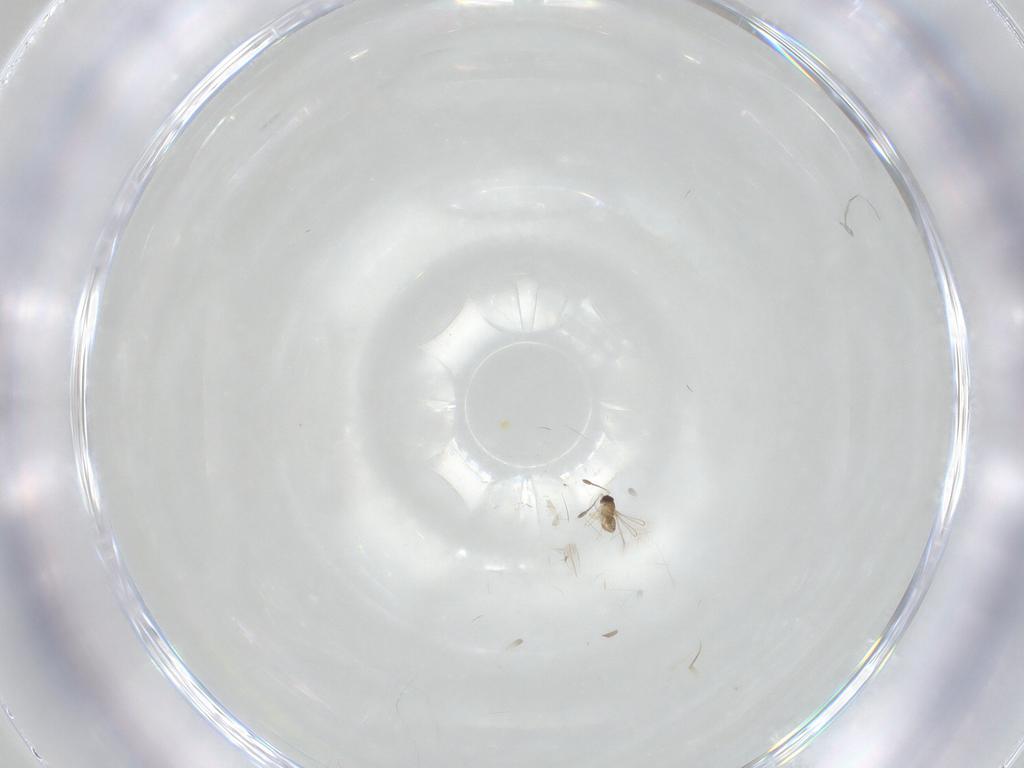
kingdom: Animalia
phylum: Arthropoda
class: Insecta
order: Hymenoptera
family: Mymaridae
